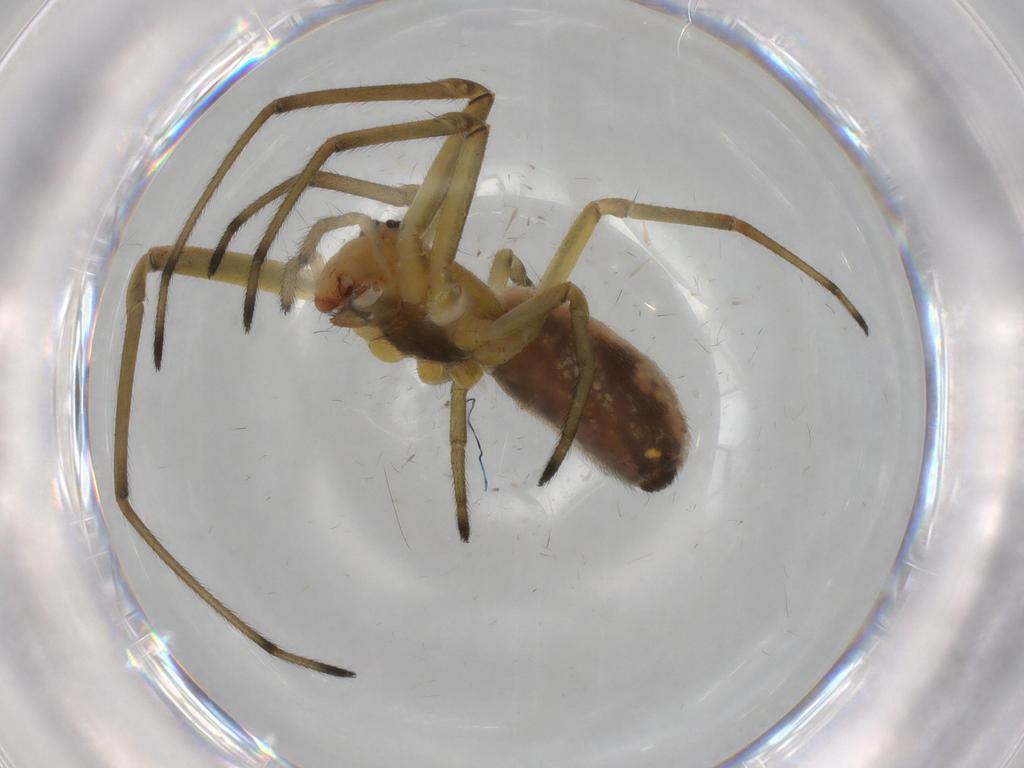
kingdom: Animalia
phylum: Arthropoda
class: Arachnida
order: Araneae
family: Tetragnathidae
